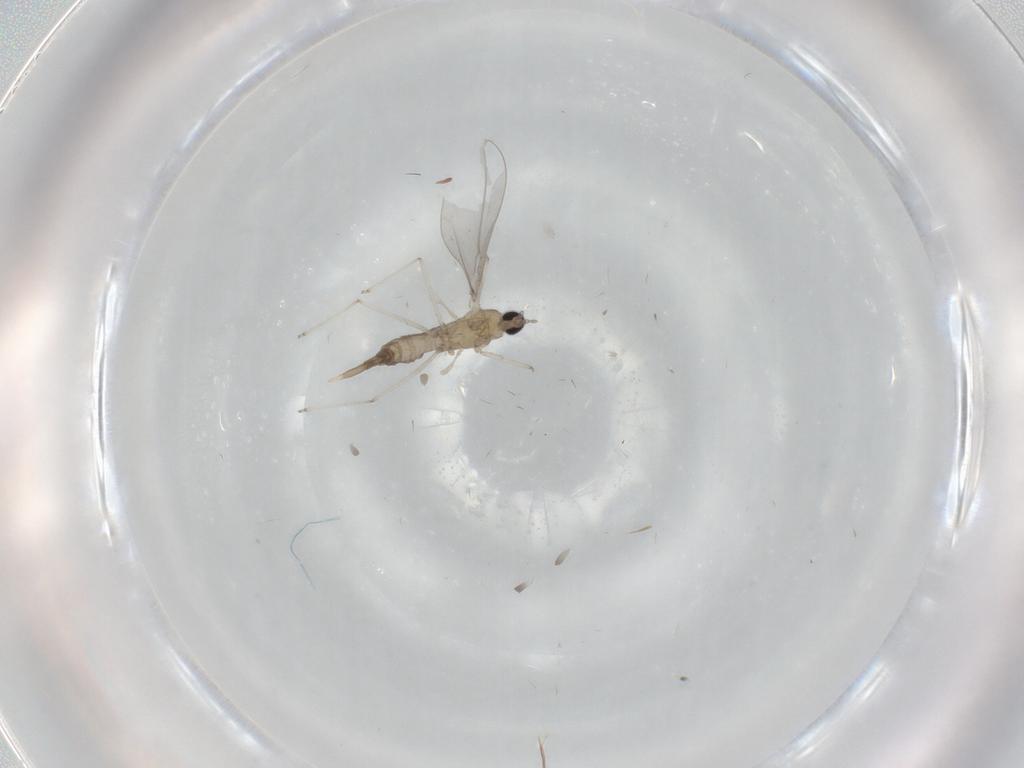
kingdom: Animalia
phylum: Arthropoda
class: Insecta
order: Diptera
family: Cecidomyiidae
